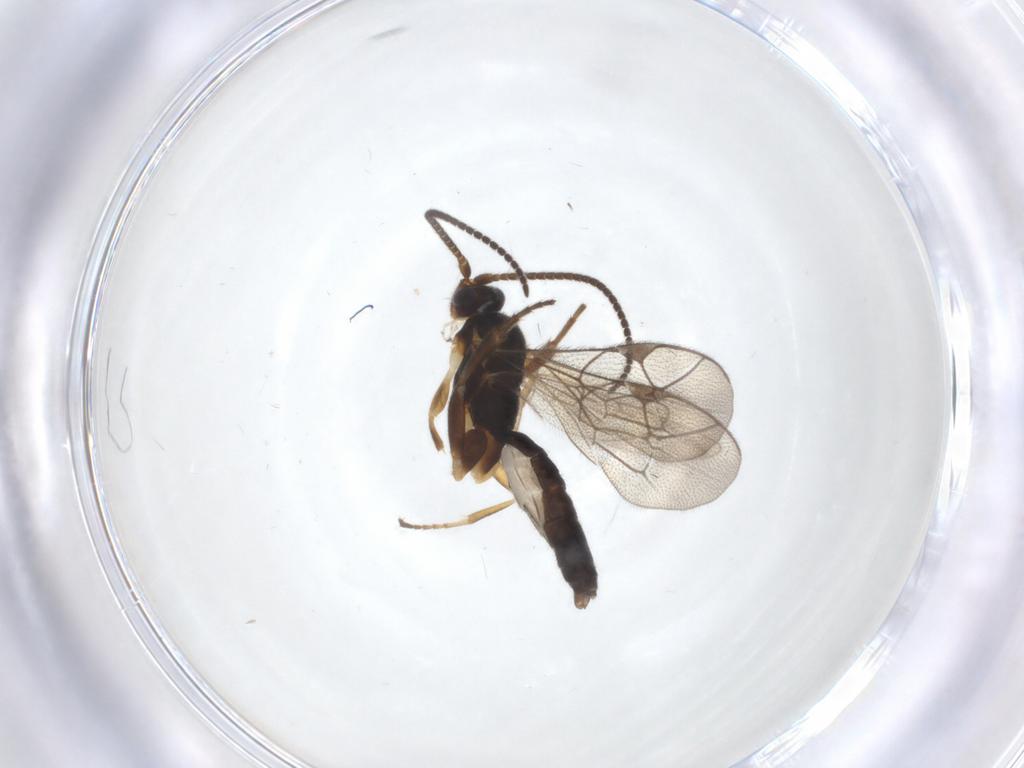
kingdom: Animalia
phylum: Arthropoda
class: Insecta
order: Hymenoptera
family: Ichneumonidae
